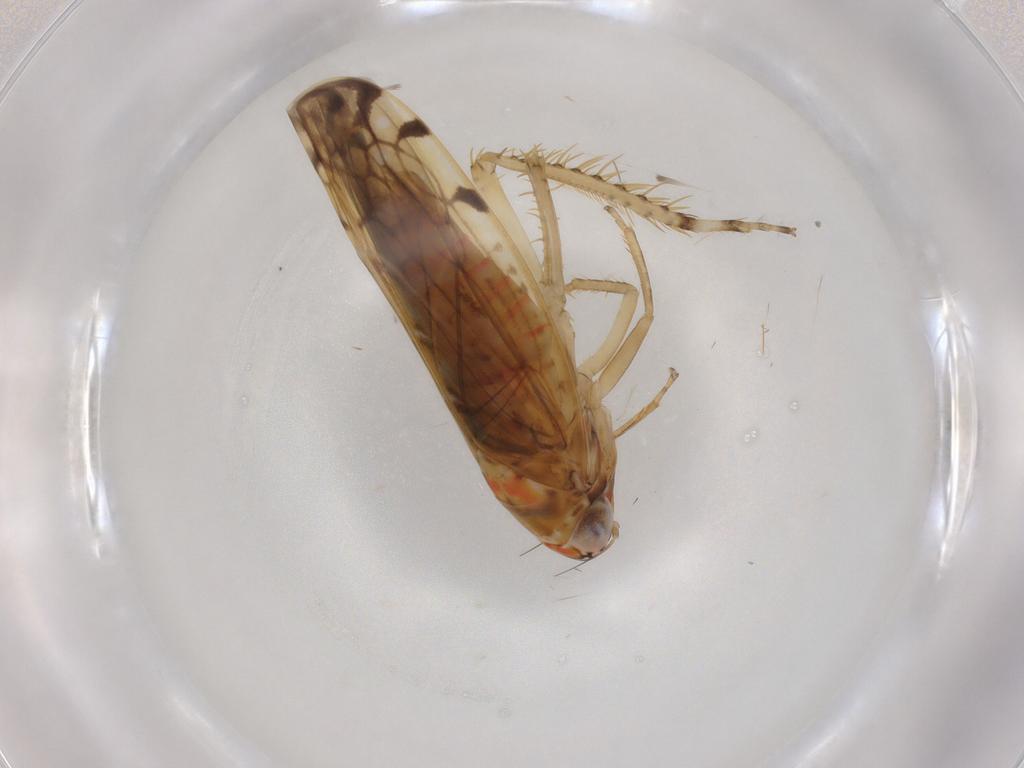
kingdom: Animalia
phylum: Arthropoda
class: Insecta
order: Hemiptera
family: Cicadellidae
